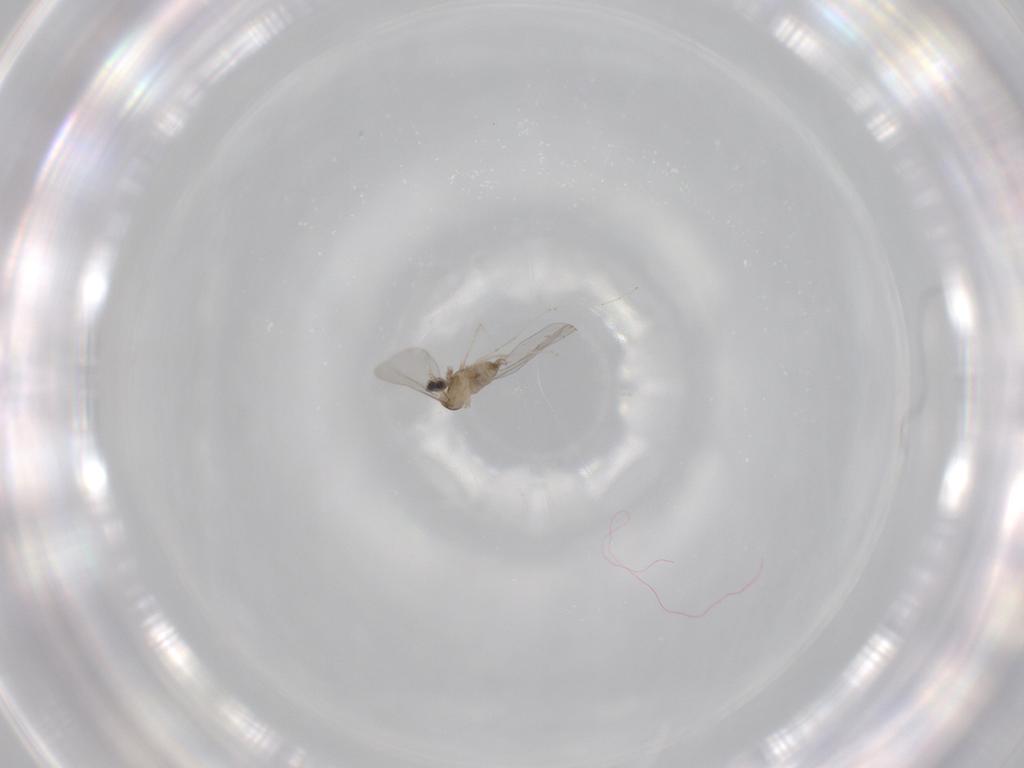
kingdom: Animalia
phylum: Arthropoda
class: Insecta
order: Diptera
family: Cecidomyiidae
